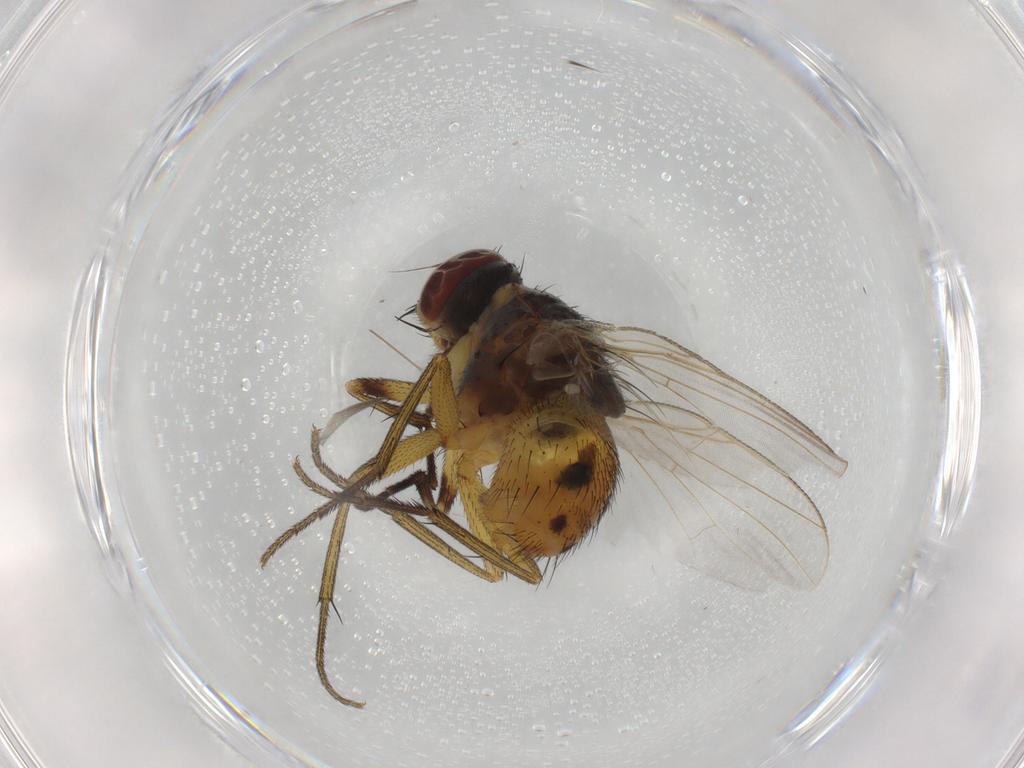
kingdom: Animalia
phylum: Arthropoda
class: Insecta
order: Diptera
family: Muscidae
